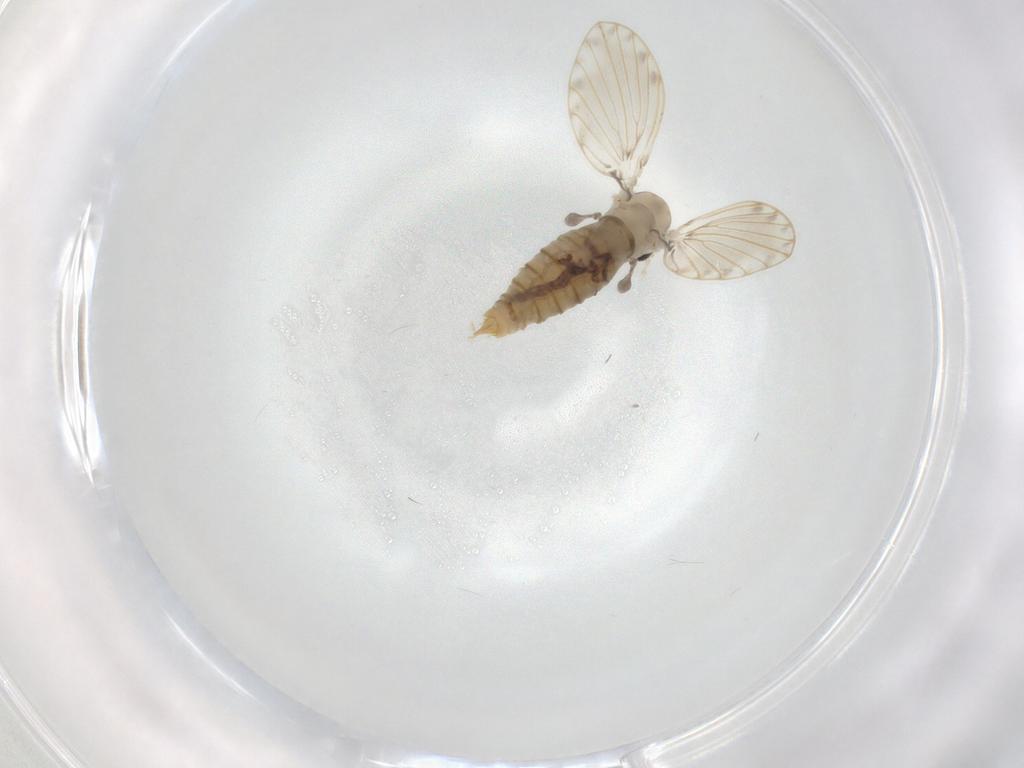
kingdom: Animalia
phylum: Arthropoda
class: Insecta
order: Diptera
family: Psychodidae
